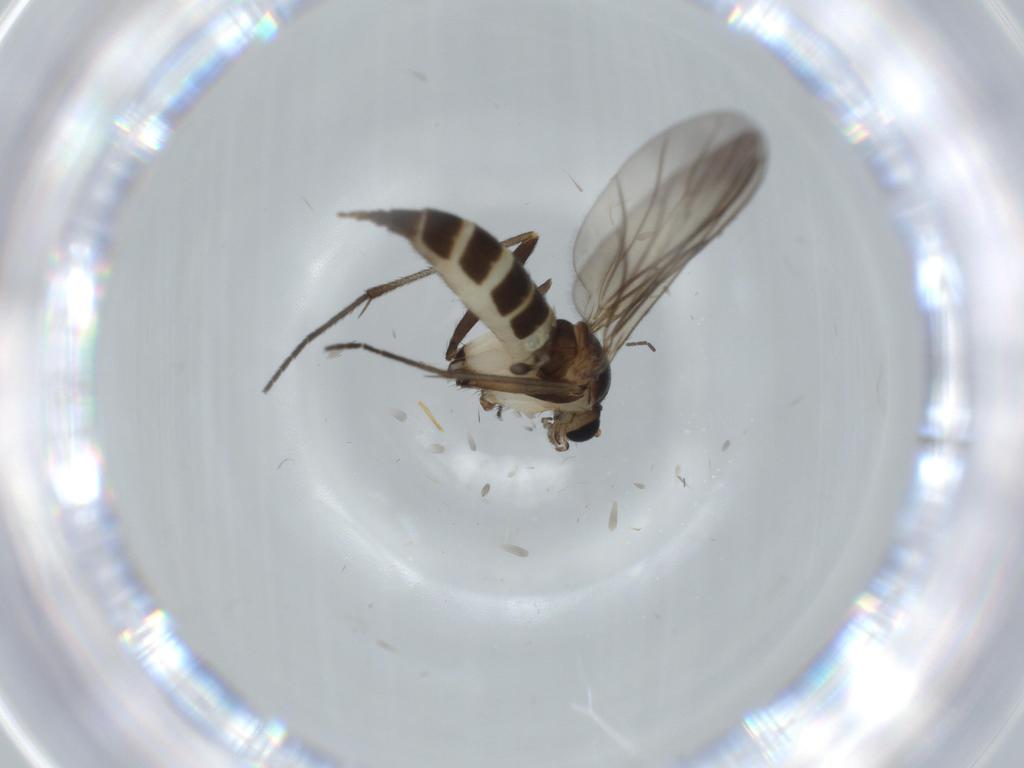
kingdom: Animalia
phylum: Arthropoda
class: Insecta
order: Diptera
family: Sciaridae
